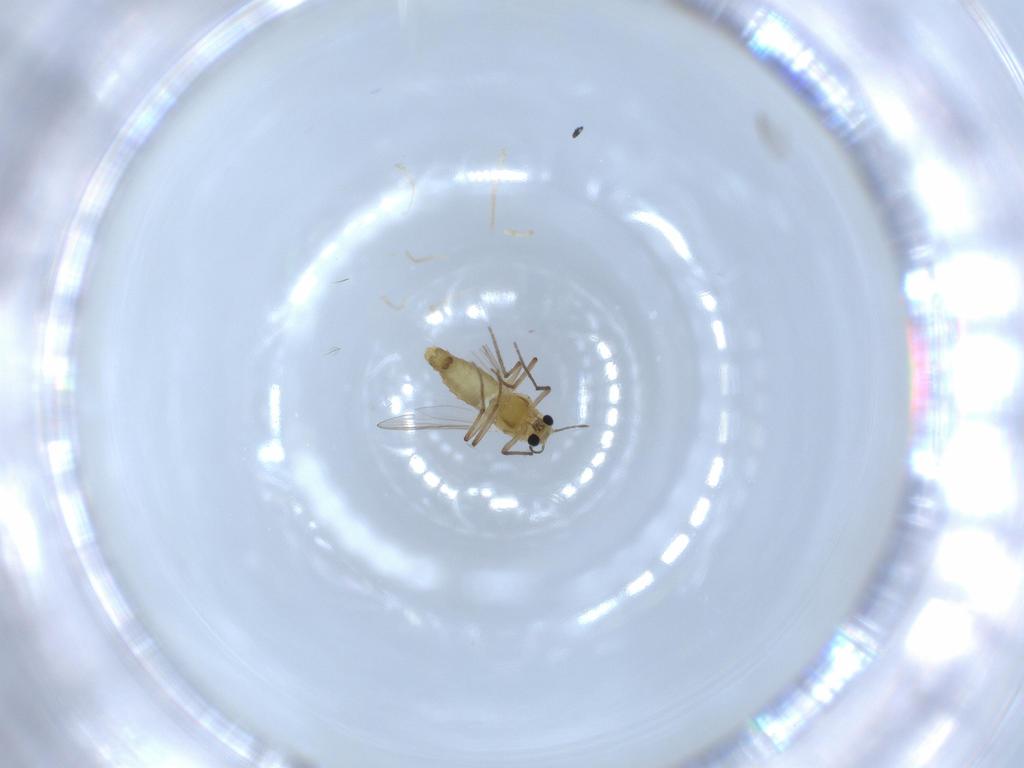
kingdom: Animalia
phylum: Arthropoda
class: Insecta
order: Diptera
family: Chironomidae
